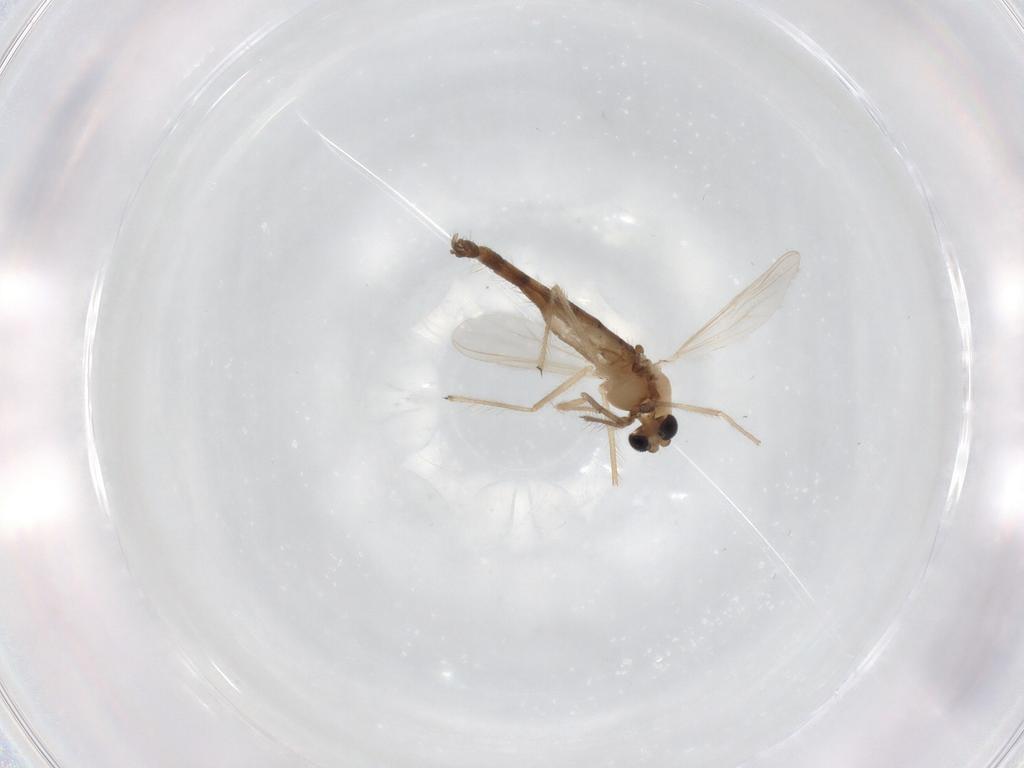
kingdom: Animalia
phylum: Arthropoda
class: Insecta
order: Diptera
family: Chironomidae
